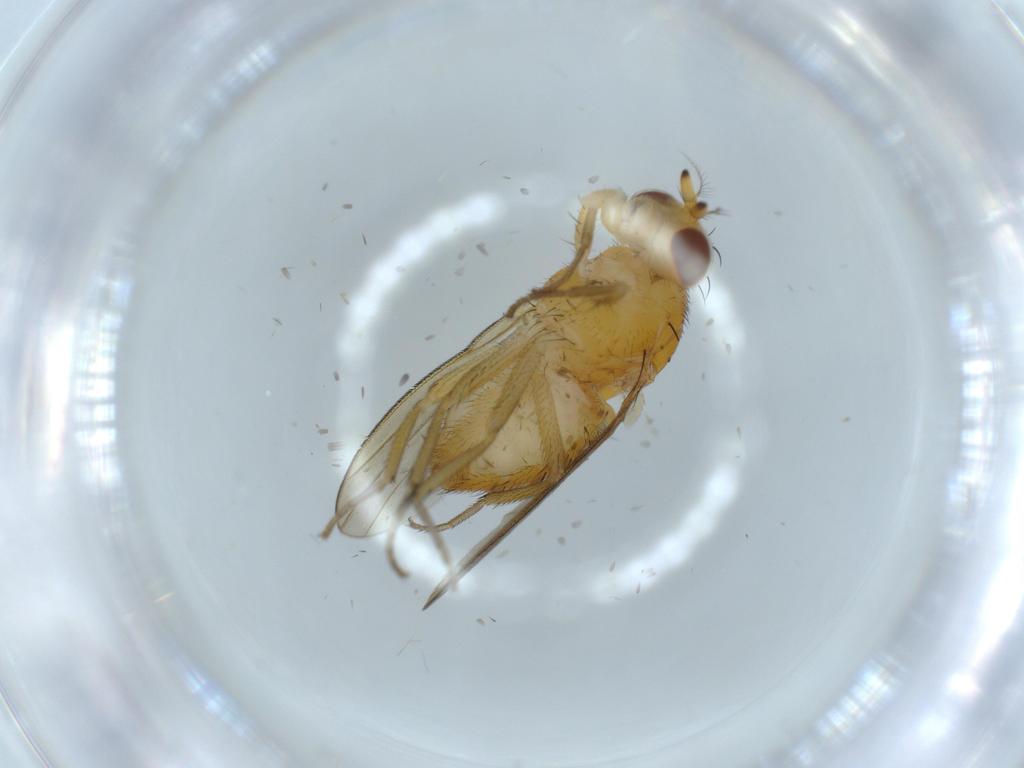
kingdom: Animalia
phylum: Arthropoda
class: Insecta
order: Diptera
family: Lauxaniidae
